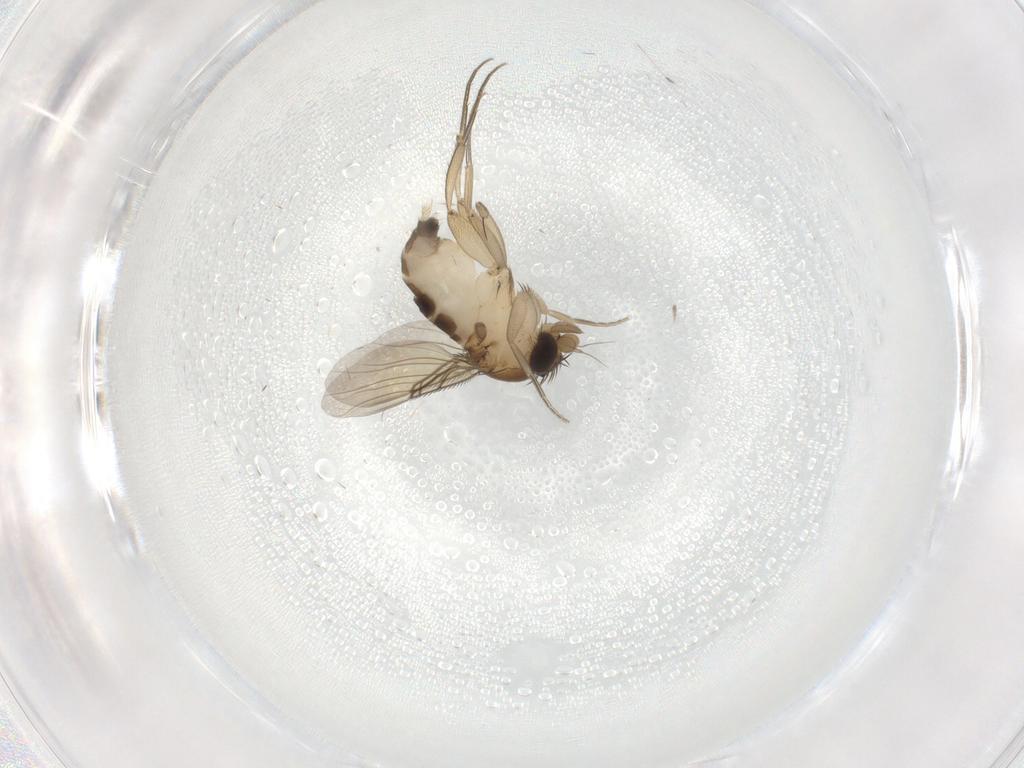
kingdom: Animalia
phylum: Arthropoda
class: Insecta
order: Diptera
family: Phoridae
